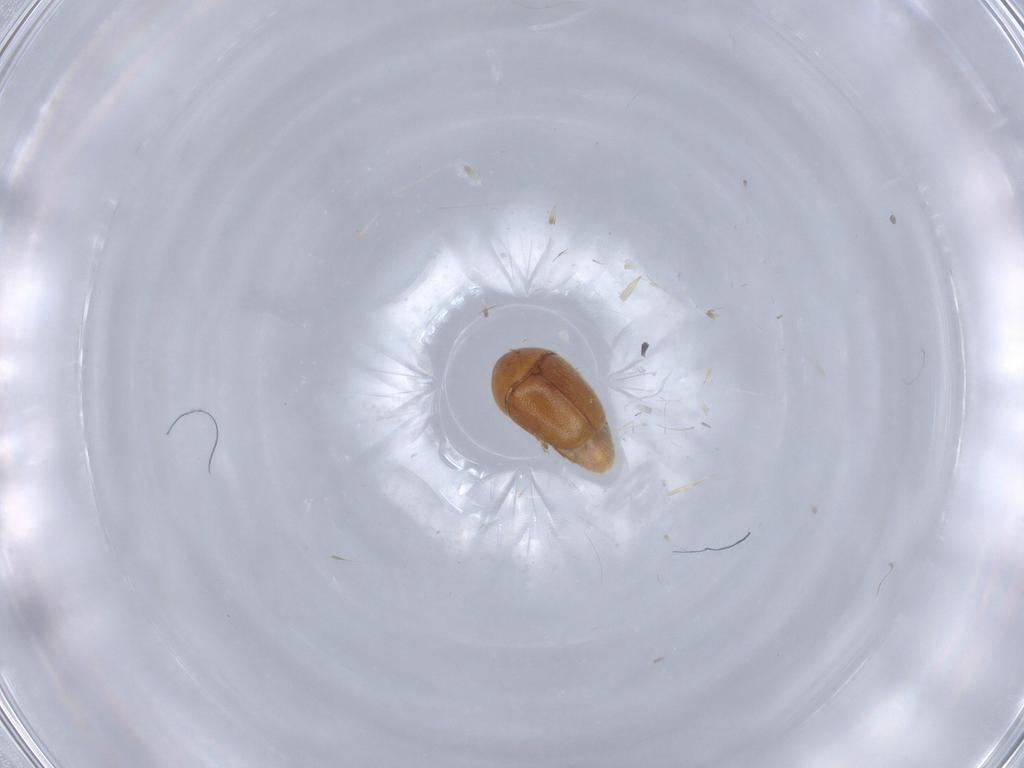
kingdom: Animalia
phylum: Arthropoda
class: Insecta
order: Coleoptera
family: Corylophidae
